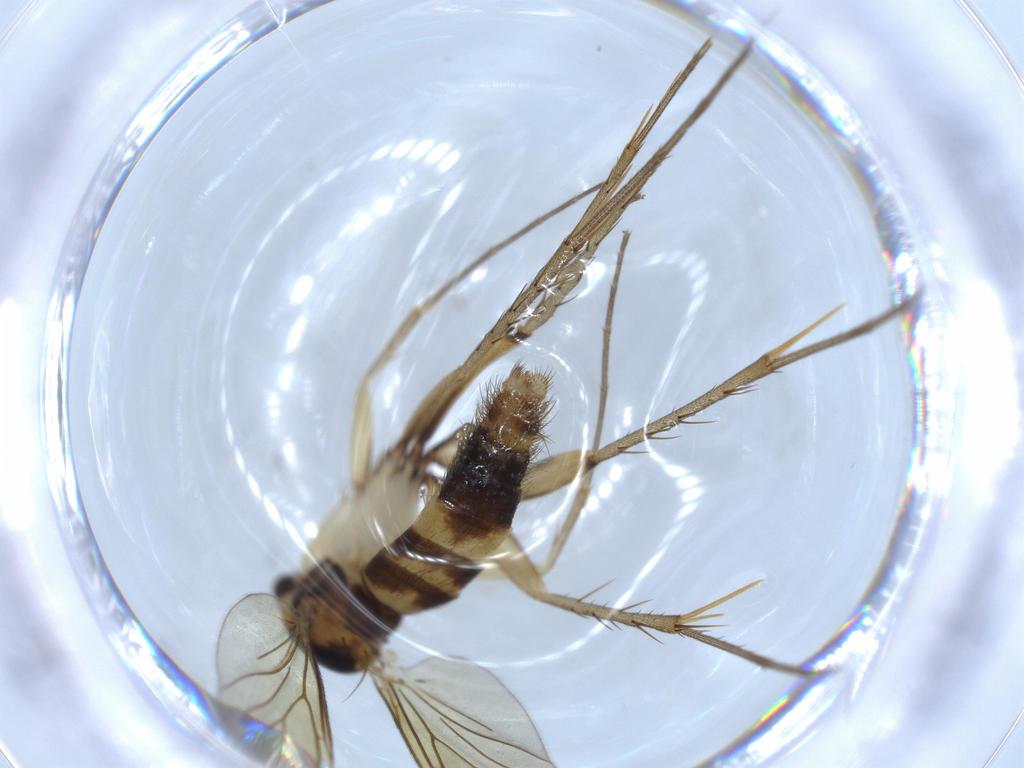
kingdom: Animalia
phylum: Arthropoda
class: Insecta
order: Diptera
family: Mycetophilidae
